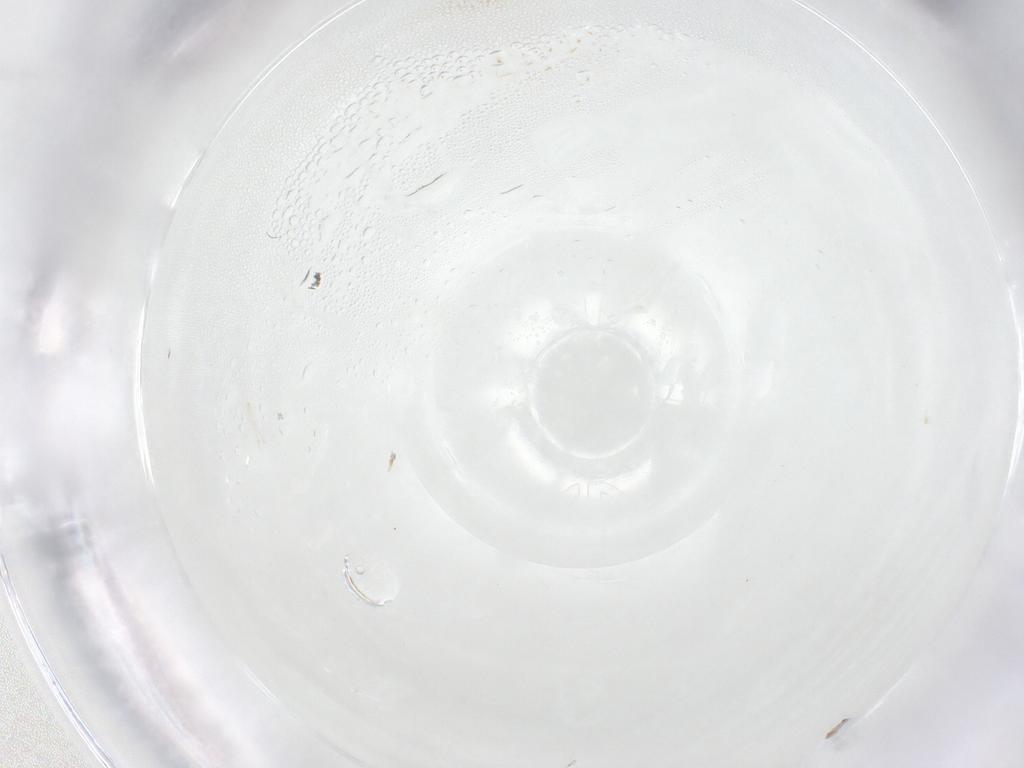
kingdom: Animalia
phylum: Arthropoda
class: Insecta
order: Diptera
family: Cecidomyiidae
